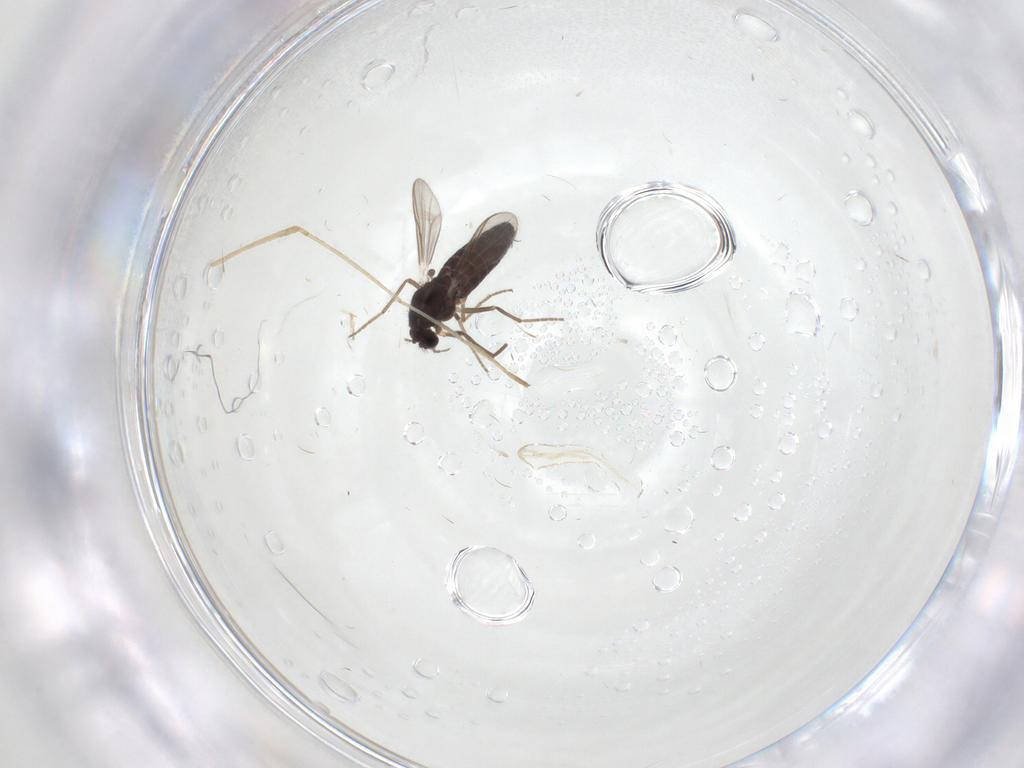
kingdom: Animalia
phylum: Arthropoda
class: Insecta
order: Diptera
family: Chironomidae
